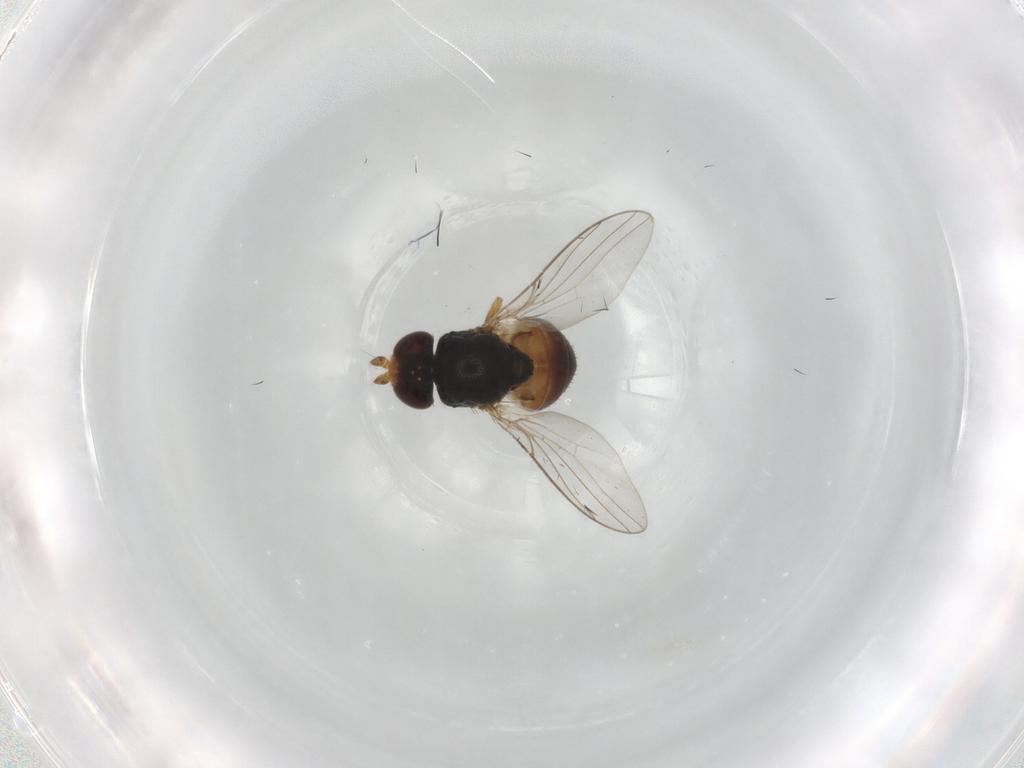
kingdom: Animalia
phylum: Arthropoda
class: Insecta
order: Diptera
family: Chloropidae
